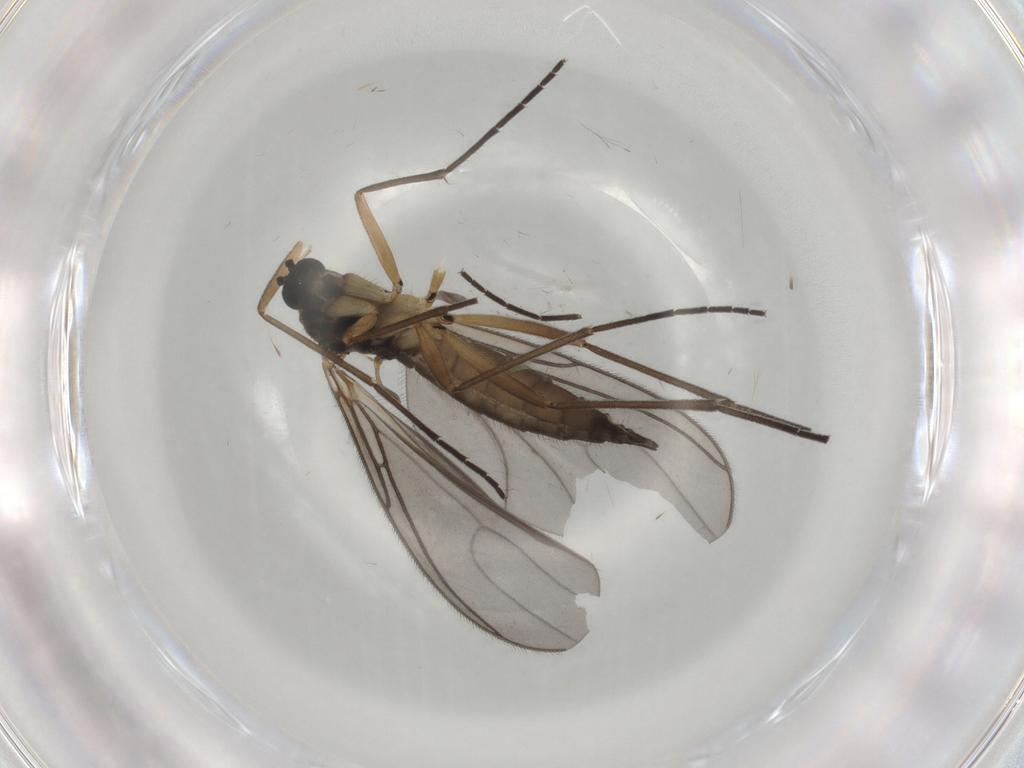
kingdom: Animalia
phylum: Arthropoda
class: Insecta
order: Diptera
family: Sciaridae
